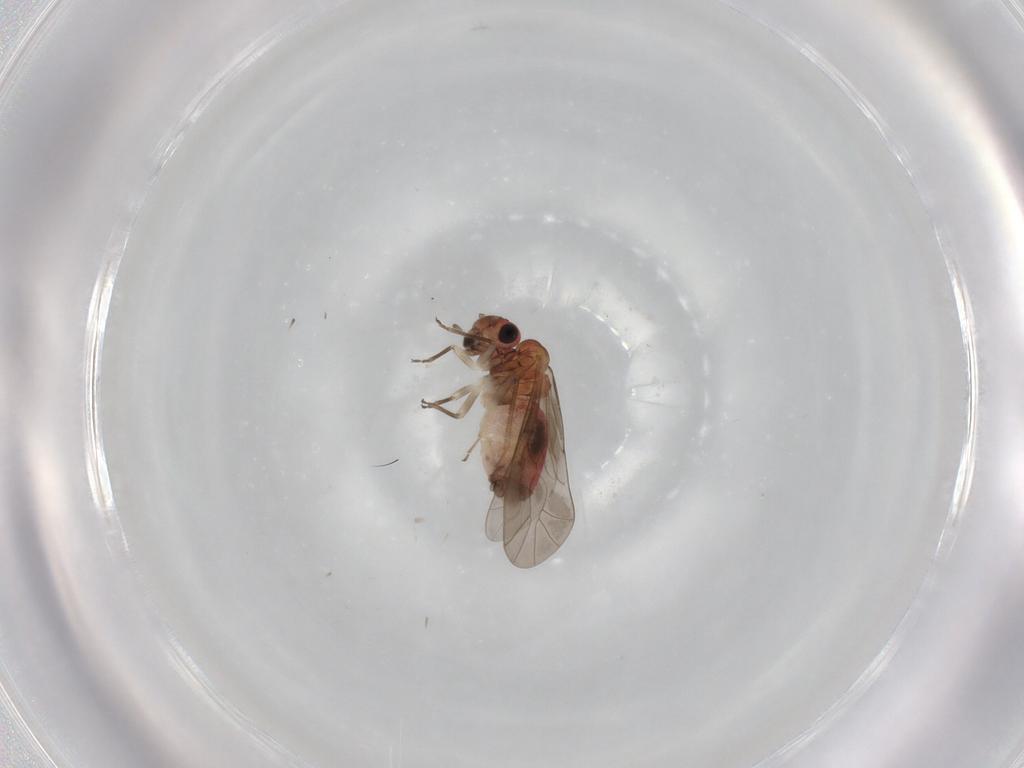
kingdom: Animalia
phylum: Arthropoda
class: Insecta
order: Psocodea
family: Lachesillidae
